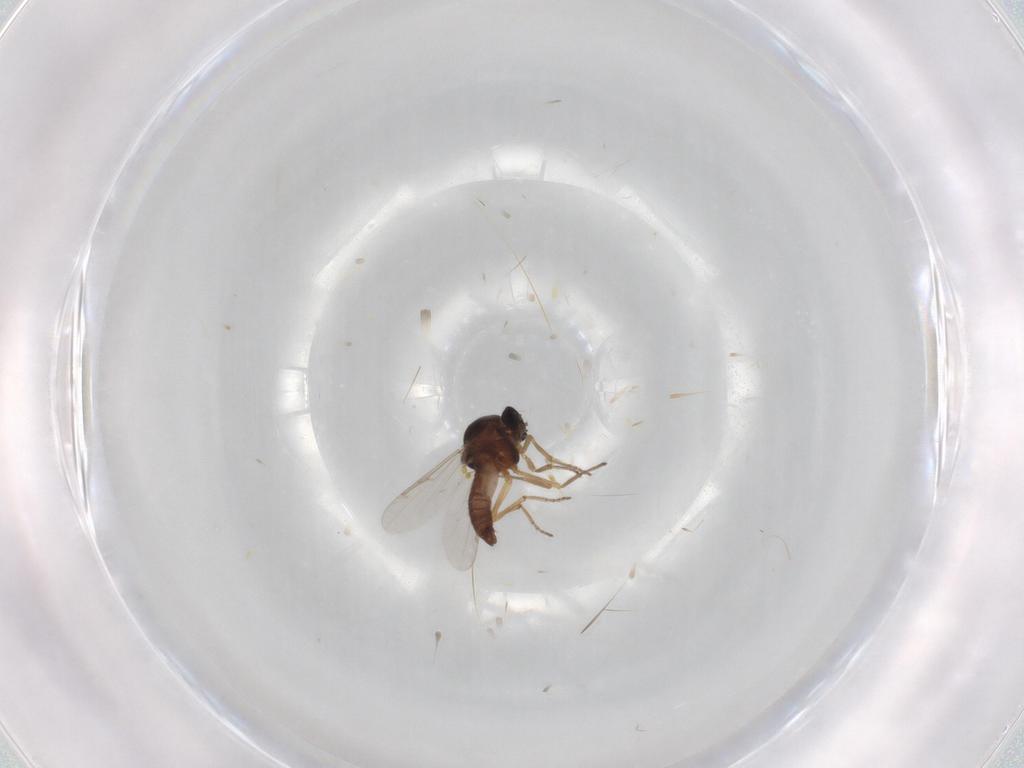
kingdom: Animalia
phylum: Arthropoda
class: Insecta
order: Diptera
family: Ceratopogonidae
